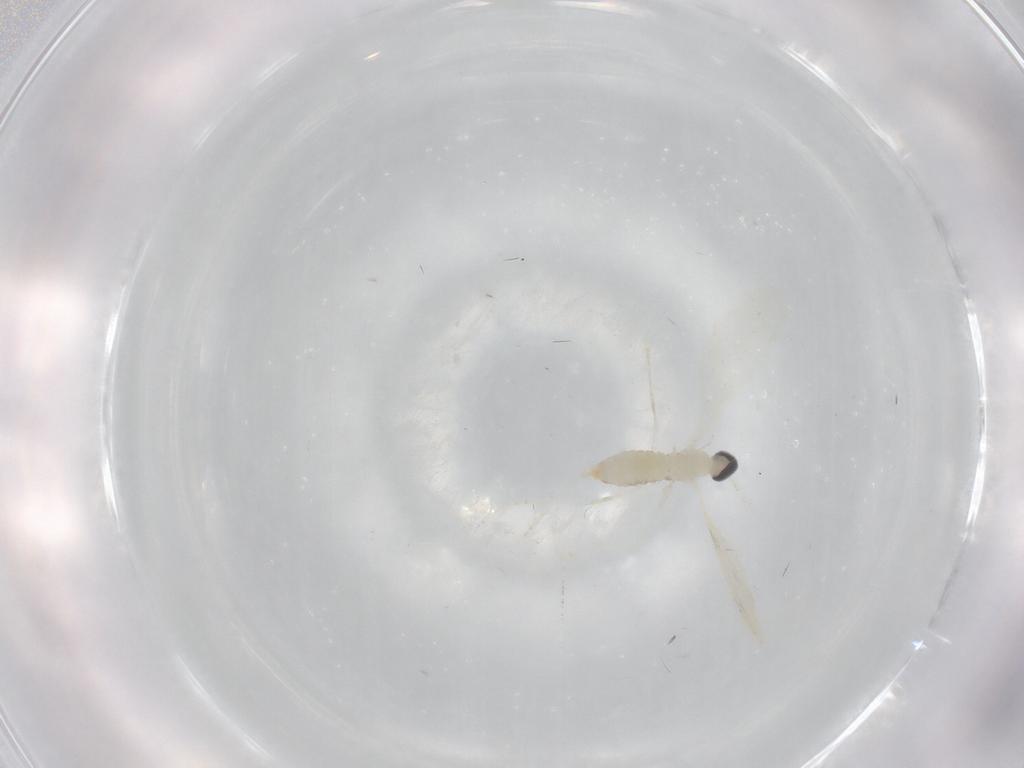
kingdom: Animalia
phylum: Arthropoda
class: Insecta
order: Diptera
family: Cecidomyiidae
